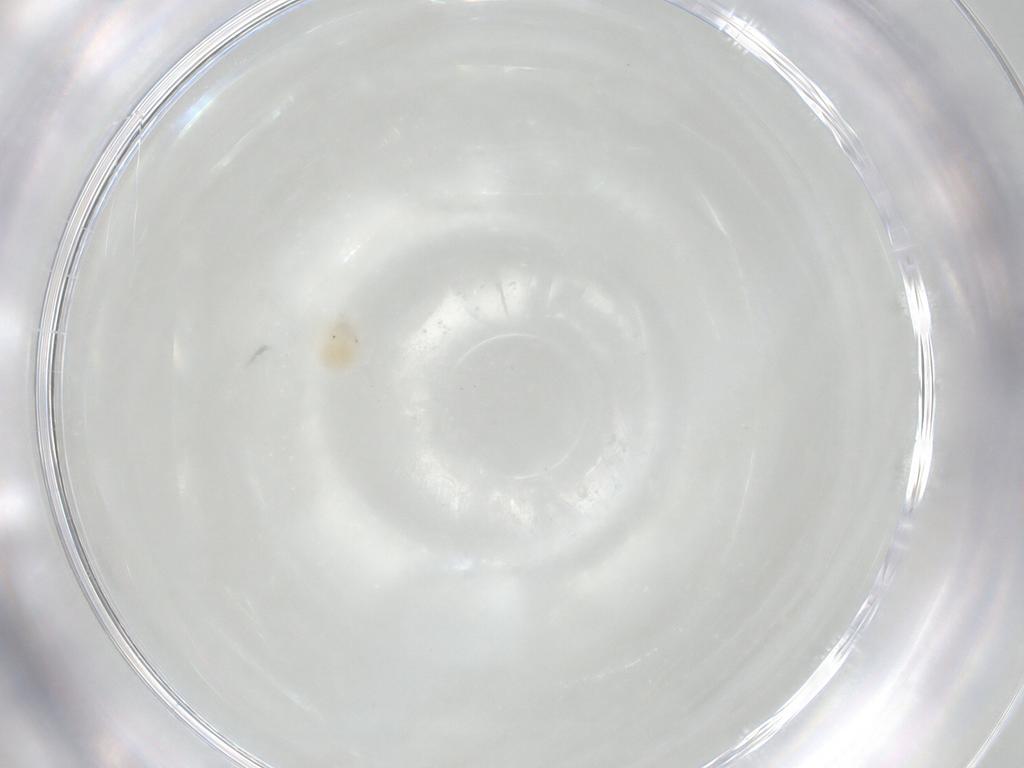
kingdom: Animalia
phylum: Arthropoda
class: Arachnida
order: Trombidiformes
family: Anystidae
